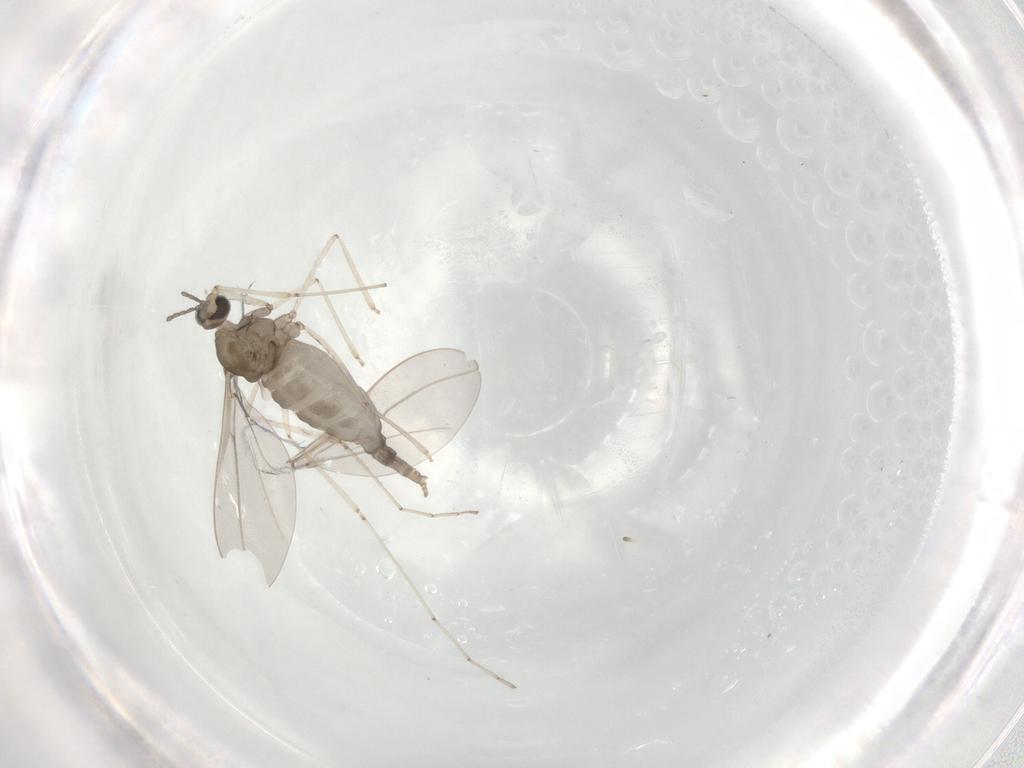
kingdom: Animalia
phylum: Arthropoda
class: Insecta
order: Diptera
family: Cecidomyiidae
